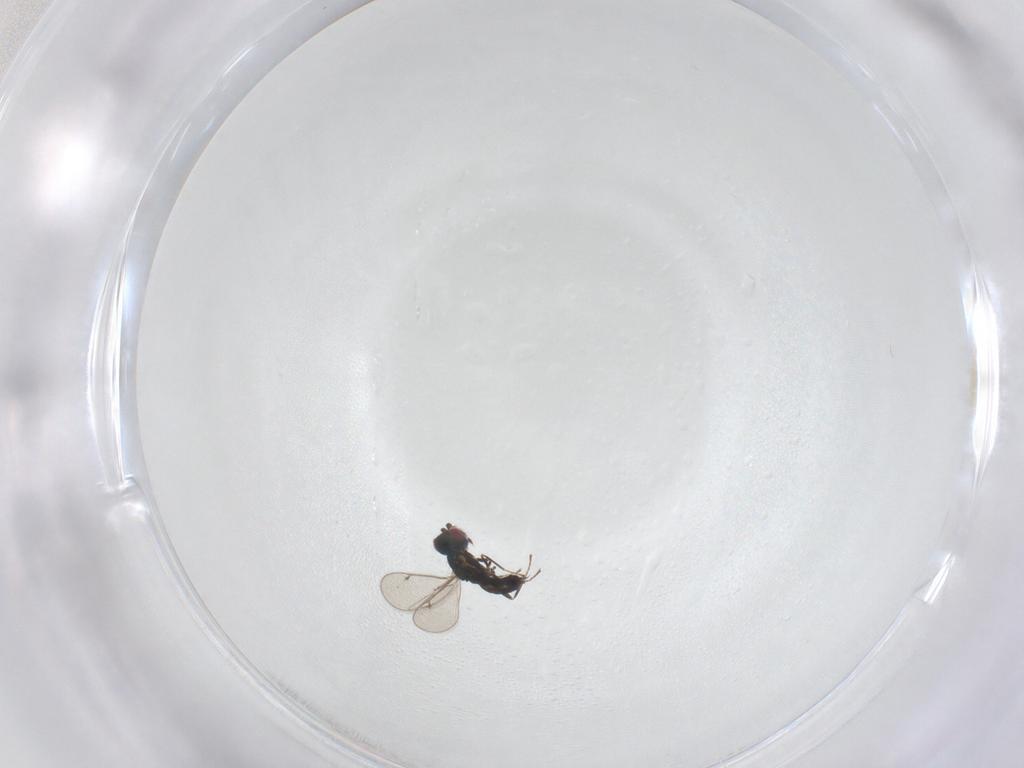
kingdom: Animalia
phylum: Arthropoda
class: Insecta
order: Hymenoptera
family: Eulophidae
